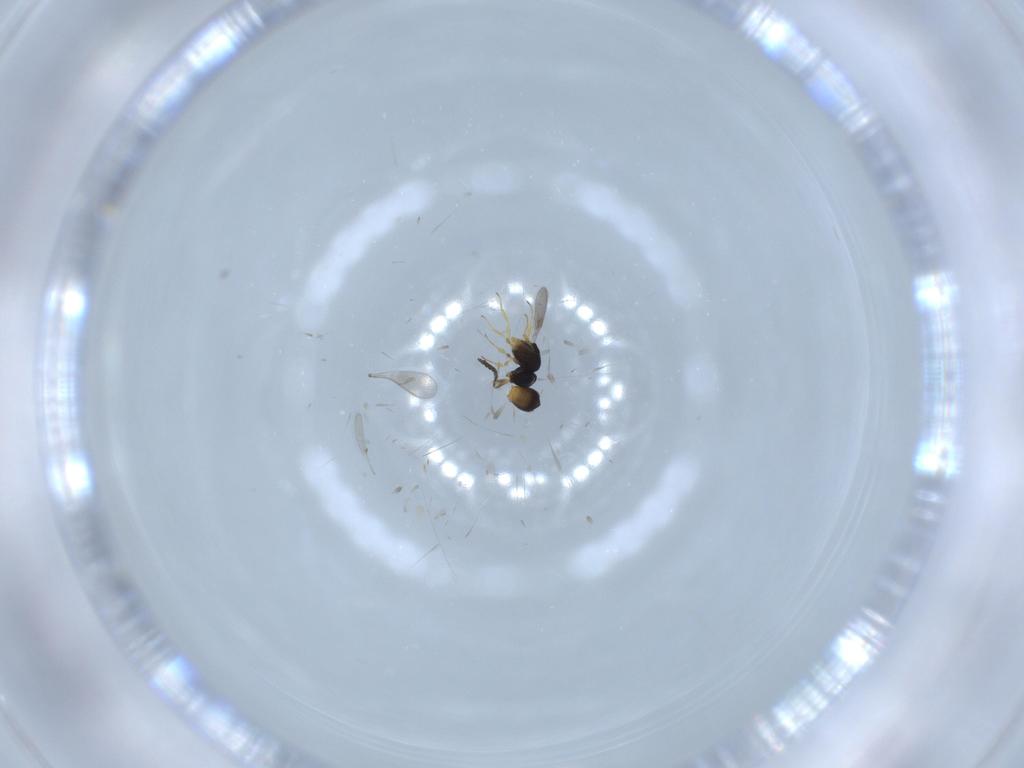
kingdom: Animalia
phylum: Arthropoda
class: Insecta
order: Hymenoptera
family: Scelionidae
